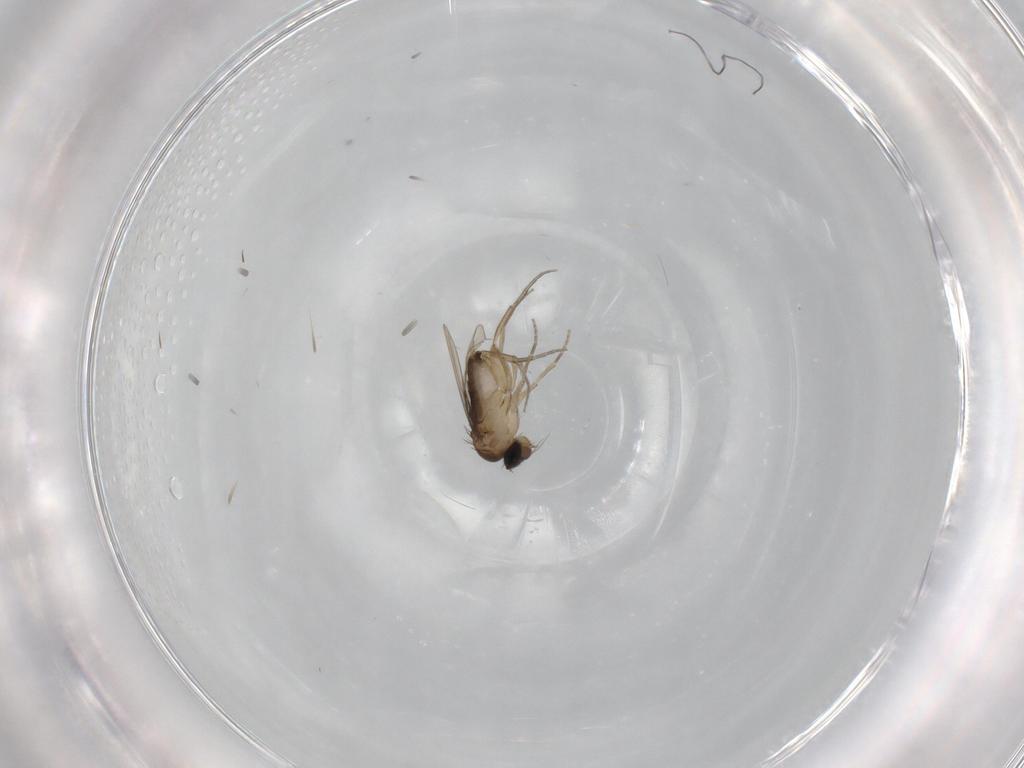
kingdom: Animalia
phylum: Arthropoda
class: Insecta
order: Diptera
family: Phoridae
